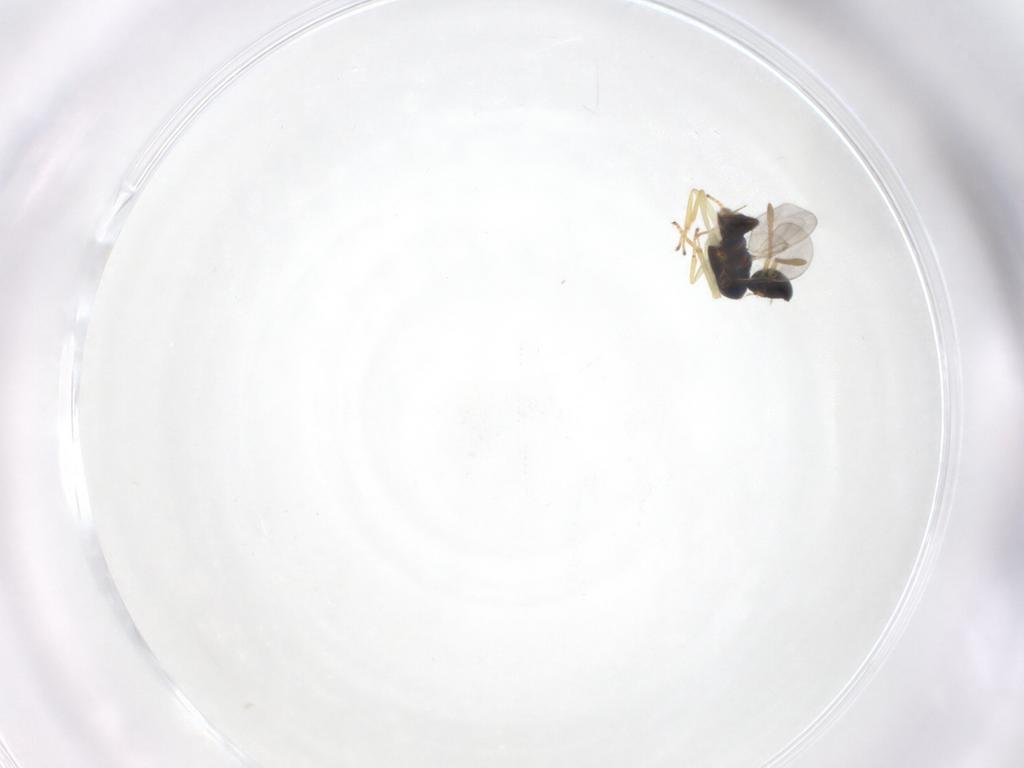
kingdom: Animalia
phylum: Arthropoda
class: Insecta
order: Hymenoptera
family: Encyrtidae
